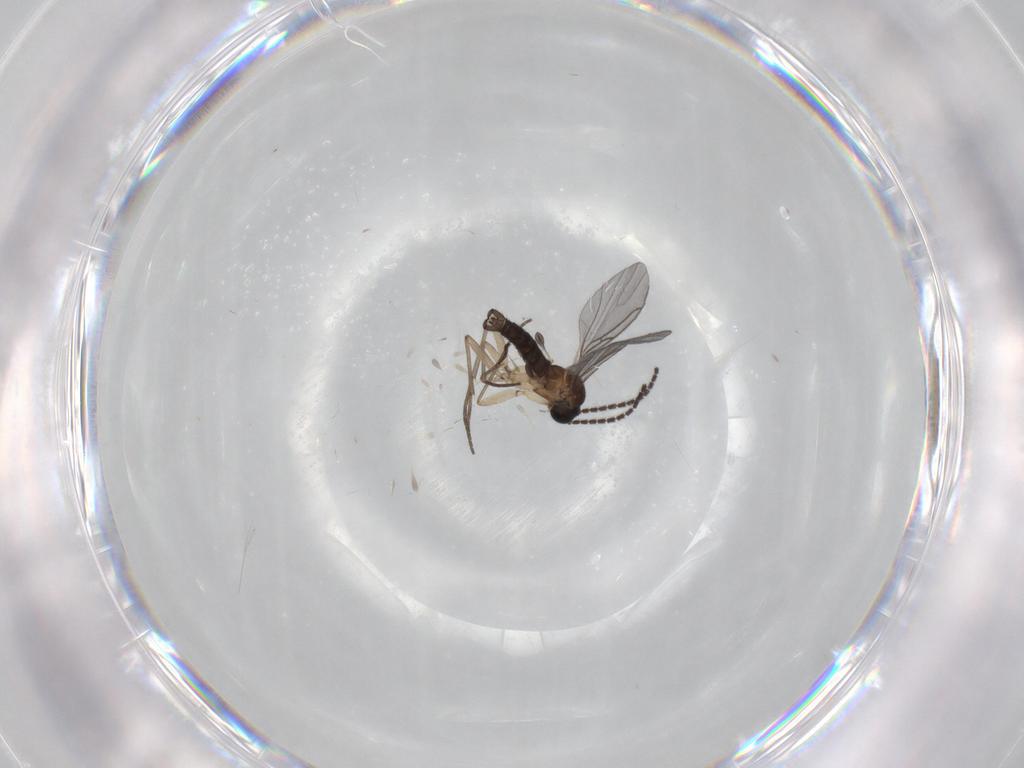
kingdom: Animalia
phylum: Arthropoda
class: Insecta
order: Diptera
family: Sciaridae
